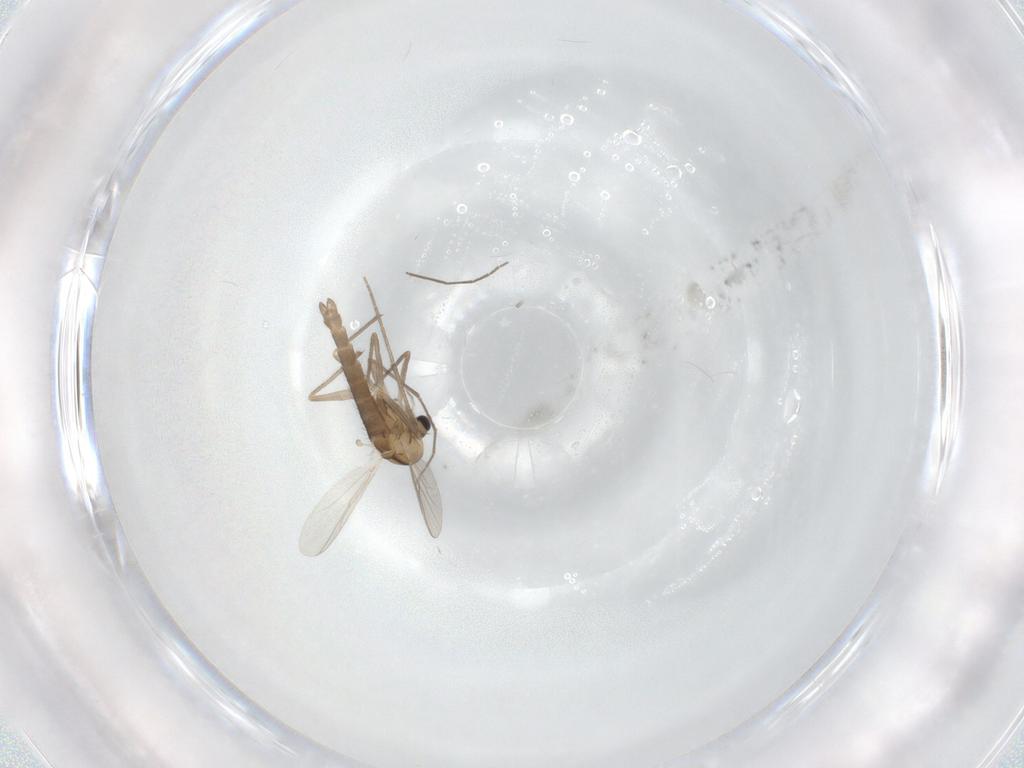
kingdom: Animalia
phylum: Arthropoda
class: Insecta
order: Diptera
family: Chironomidae
